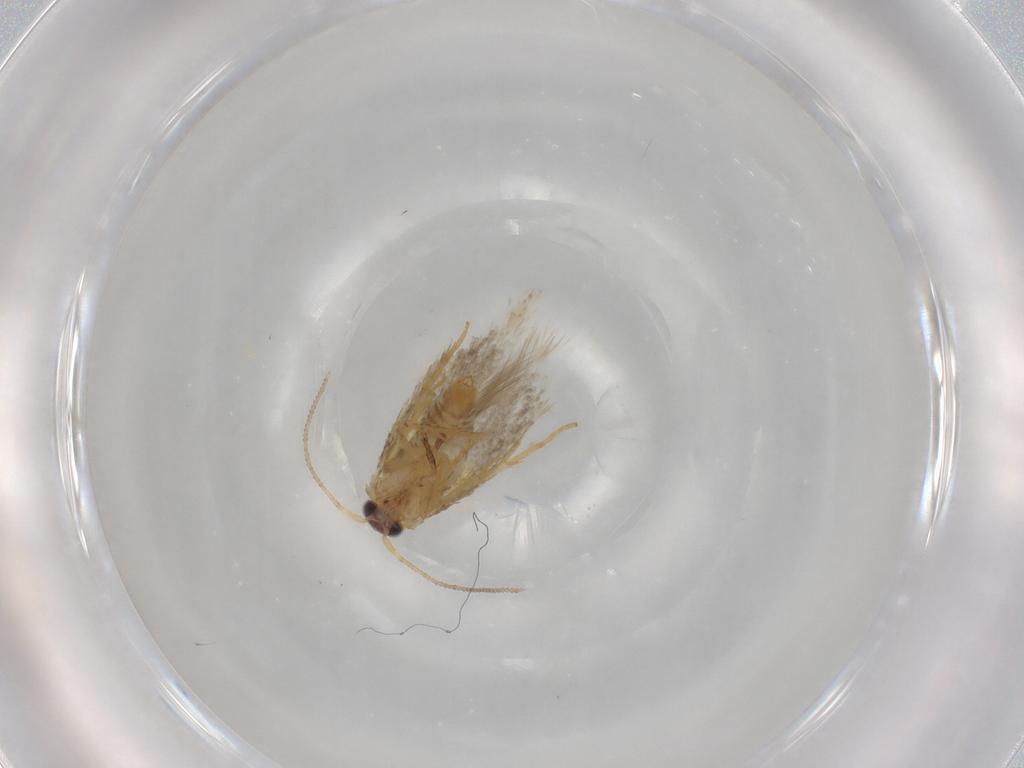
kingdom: Animalia
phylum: Arthropoda
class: Insecta
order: Lepidoptera
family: Nepticulidae
